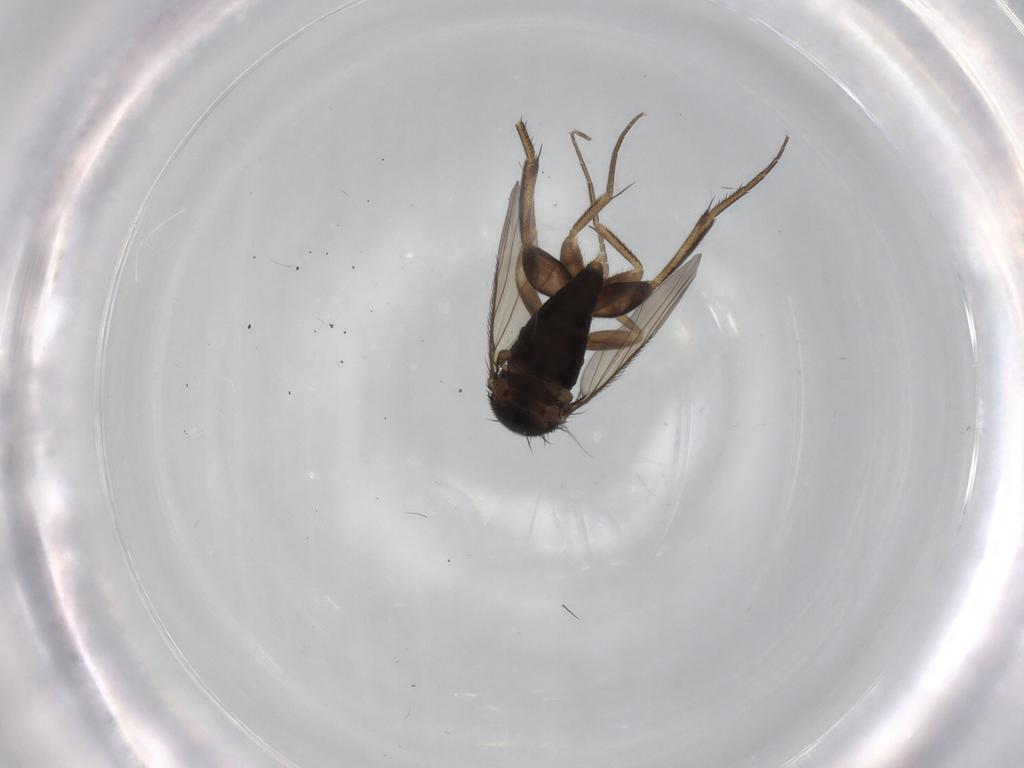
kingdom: Animalia
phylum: Arthropoda
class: Insecta
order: Diptera
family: Phoridae
